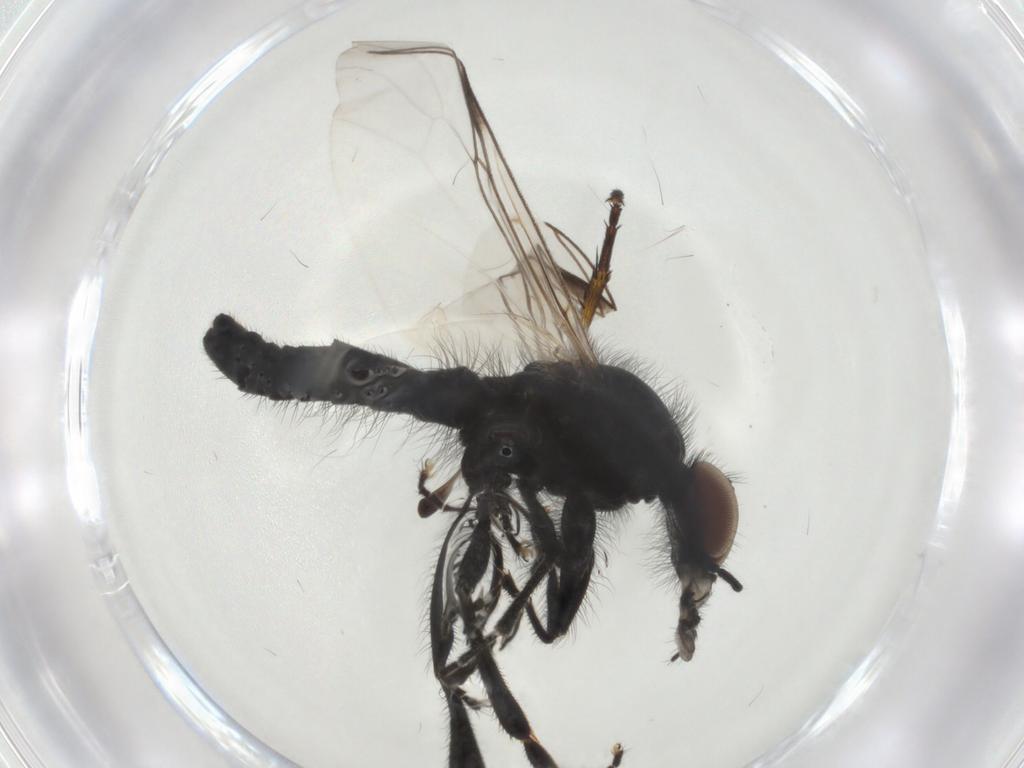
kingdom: Animalia
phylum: Arthropoda
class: Insecta
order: Diptera
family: Bibionidae
